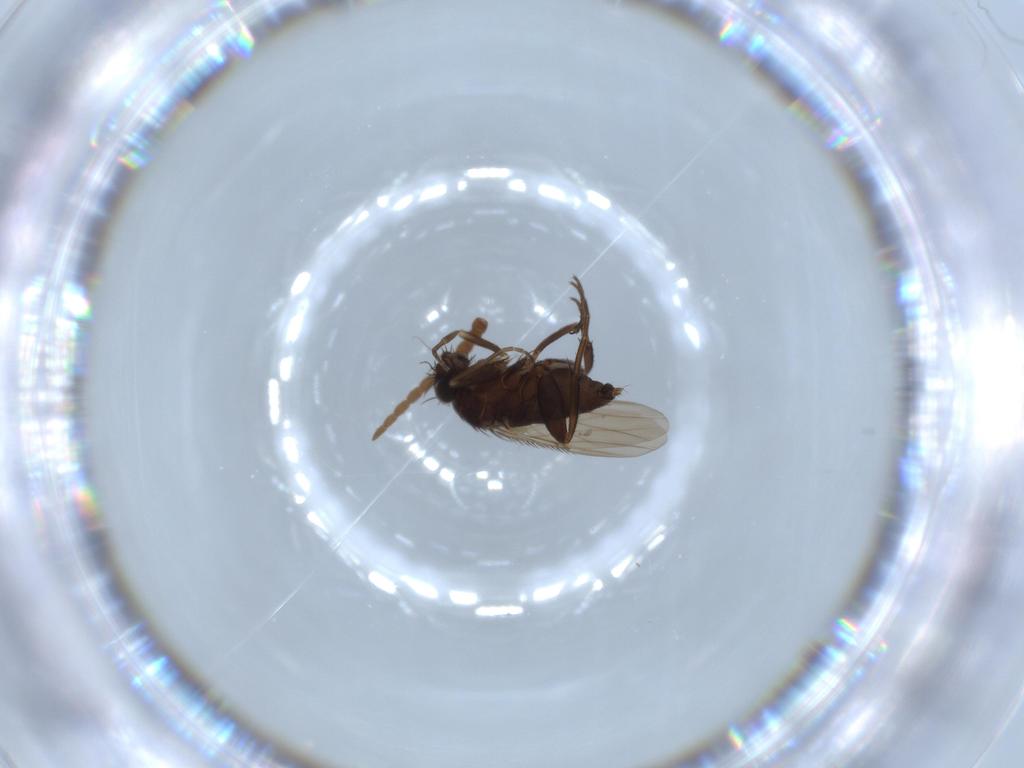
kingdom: Animalia
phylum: Arthropoda
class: Insecta
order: Diptera
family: Phoridae
